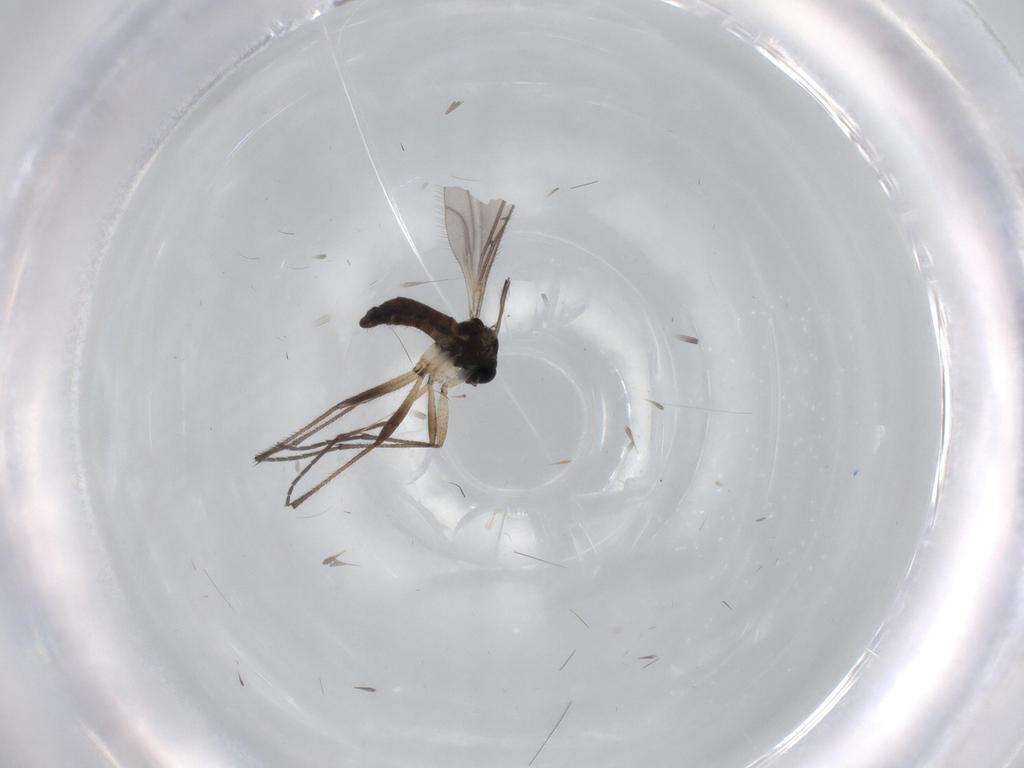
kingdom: Animalia
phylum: Arthropoda
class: Insecta
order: Diptera
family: Sciaridae
